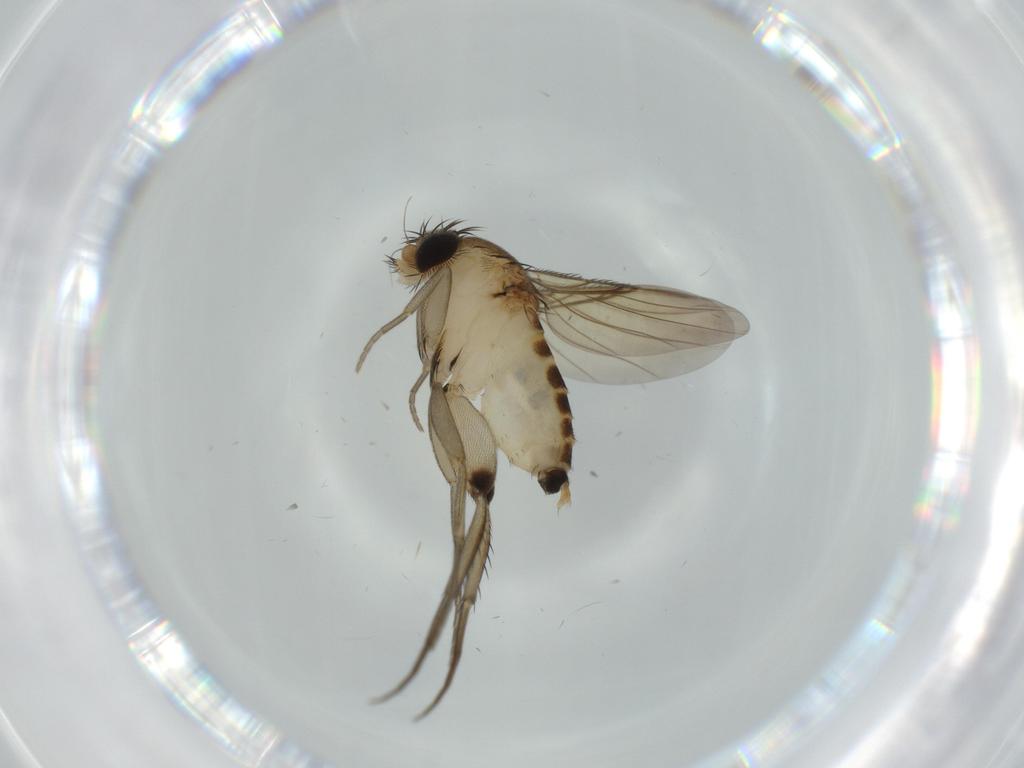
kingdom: Animalia
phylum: Arthropoda
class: Insecta
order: Diptera
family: Phoridae
